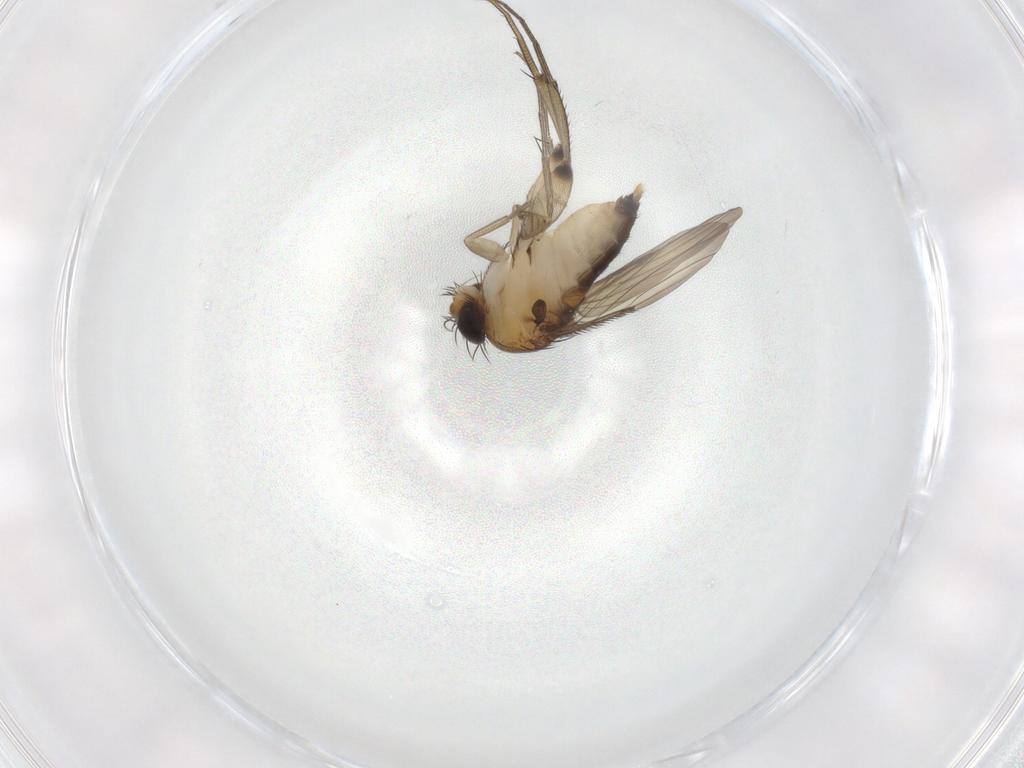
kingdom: Animalia
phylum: Arthropoda
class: Insecta
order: Diptera
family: Phoridae
